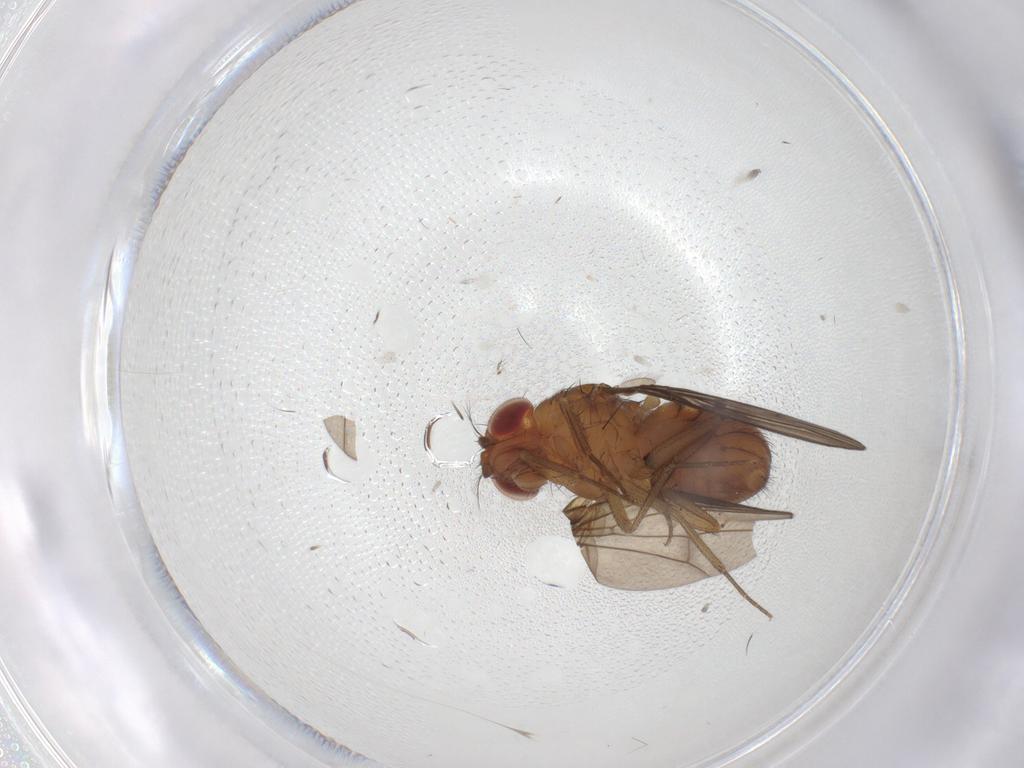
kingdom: Animalia
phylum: Arthropoda
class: Insecta
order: Diptera
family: Drosophilidae
